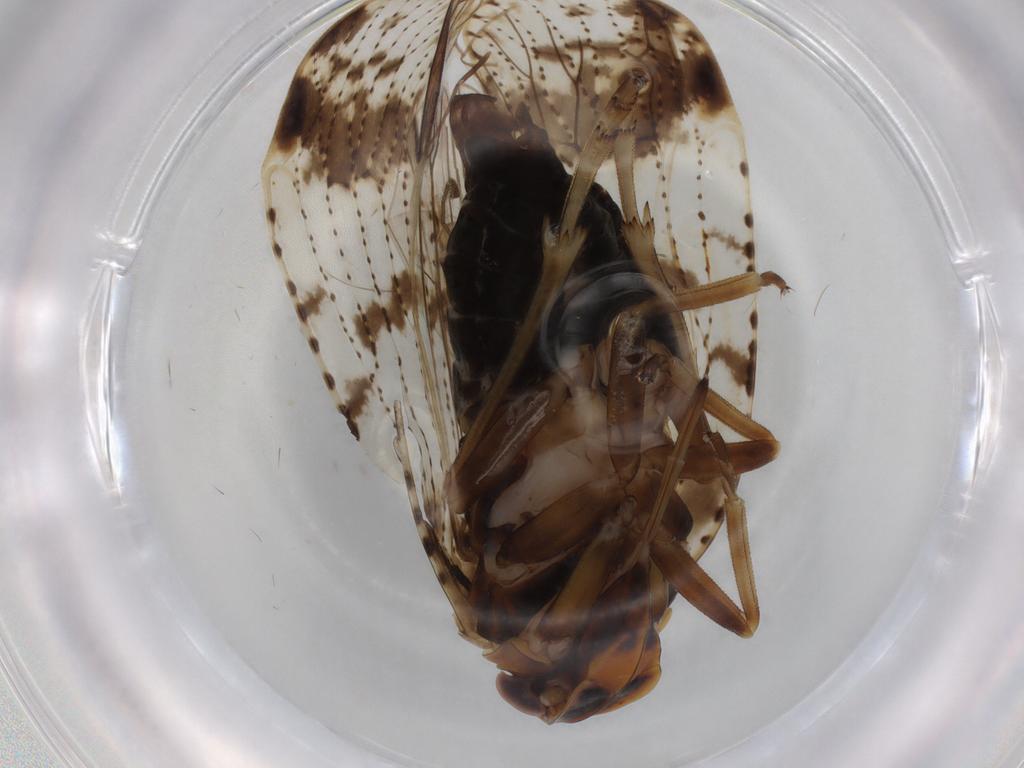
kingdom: Animalia
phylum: Arthropoda
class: Insecta
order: Hemiptera
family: Cixiidae
